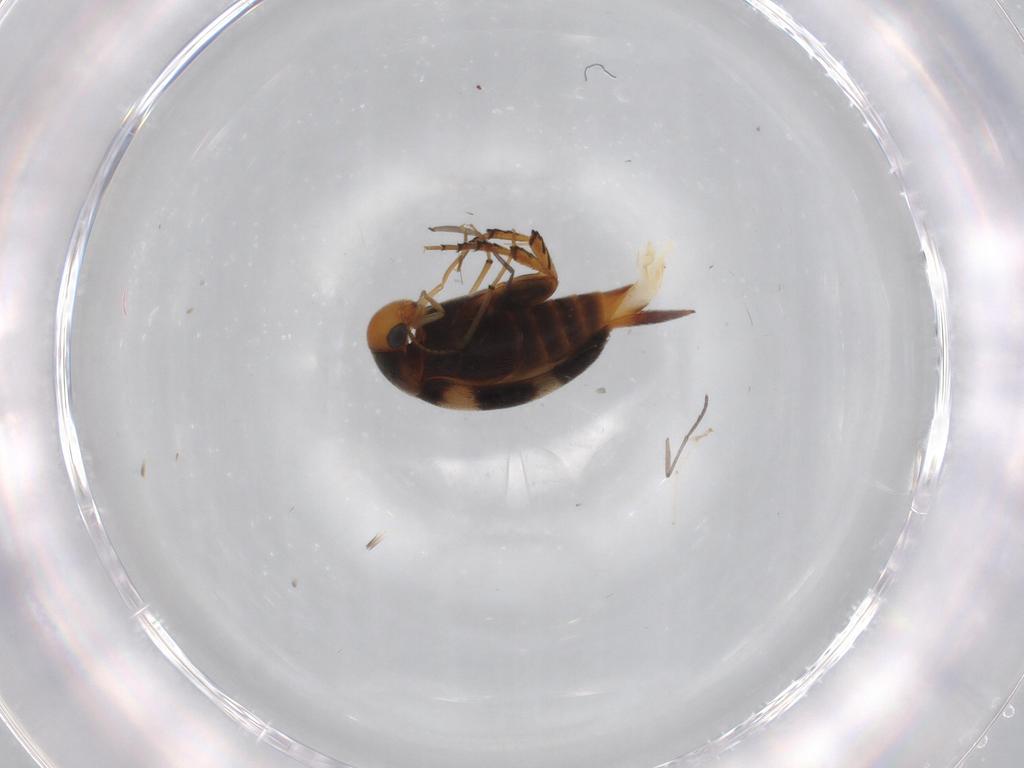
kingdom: Animalia
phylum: Arthropoda
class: Insecta
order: Coleoptera
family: Mordellidae
